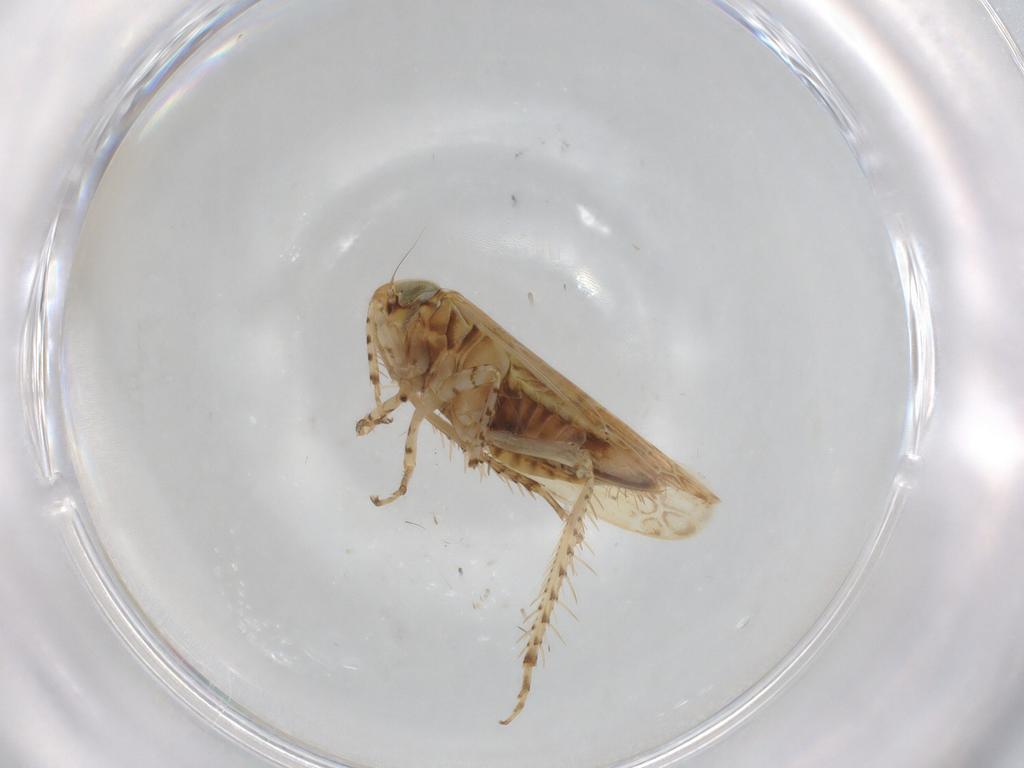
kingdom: Animalia
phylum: Arthropoda
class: Insecta
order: Hemiptera
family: Cicadellidae
